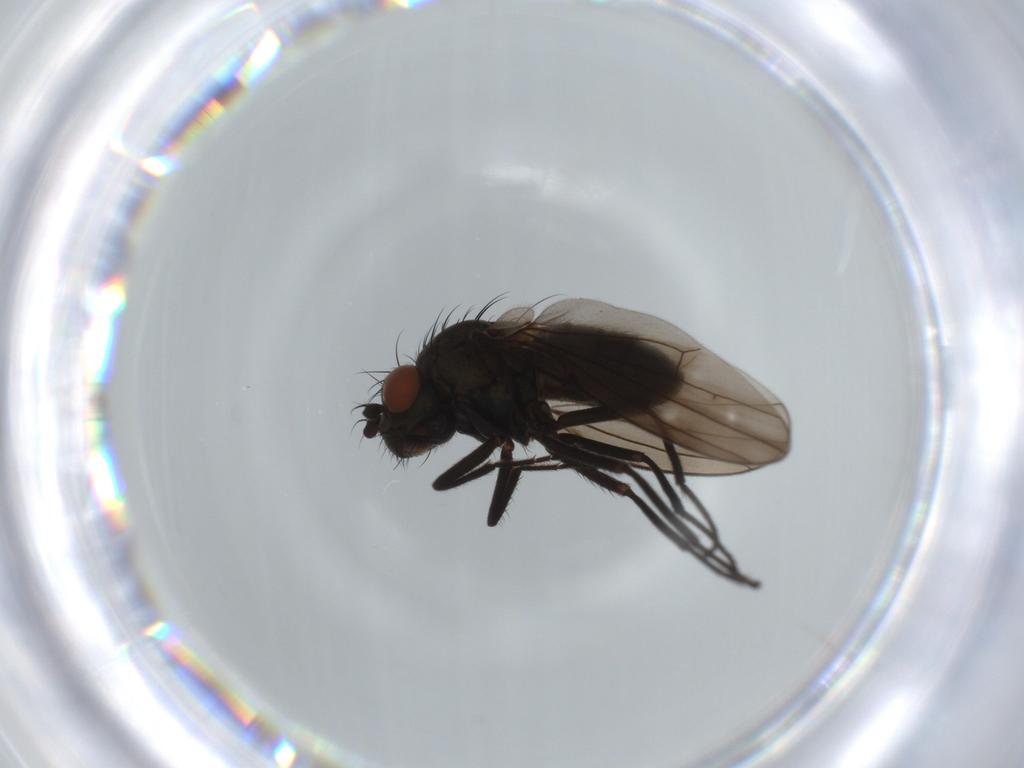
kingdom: Animalia
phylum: Arthropoda
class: Insecta
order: Diptera
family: Ephydridae
